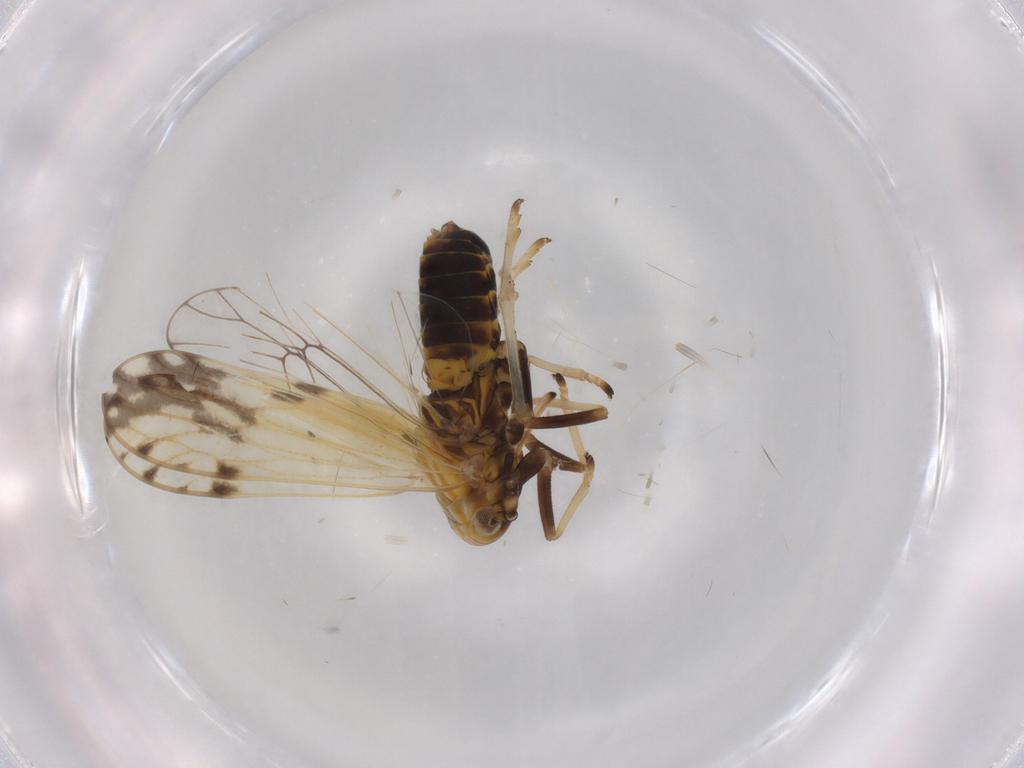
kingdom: Animalia
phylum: Arthropoda
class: Insecta
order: Hemiptera
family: Delphacidae
